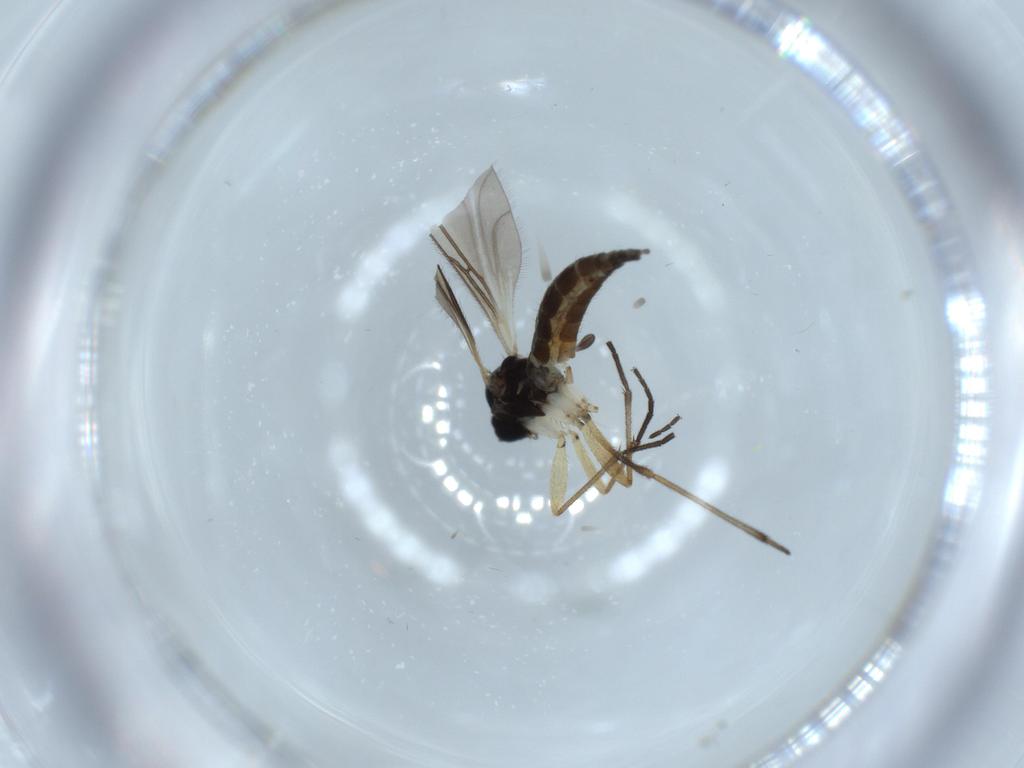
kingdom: Animalia
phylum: Arthropoda
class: Insecta
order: Diptera
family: Sciaridae
